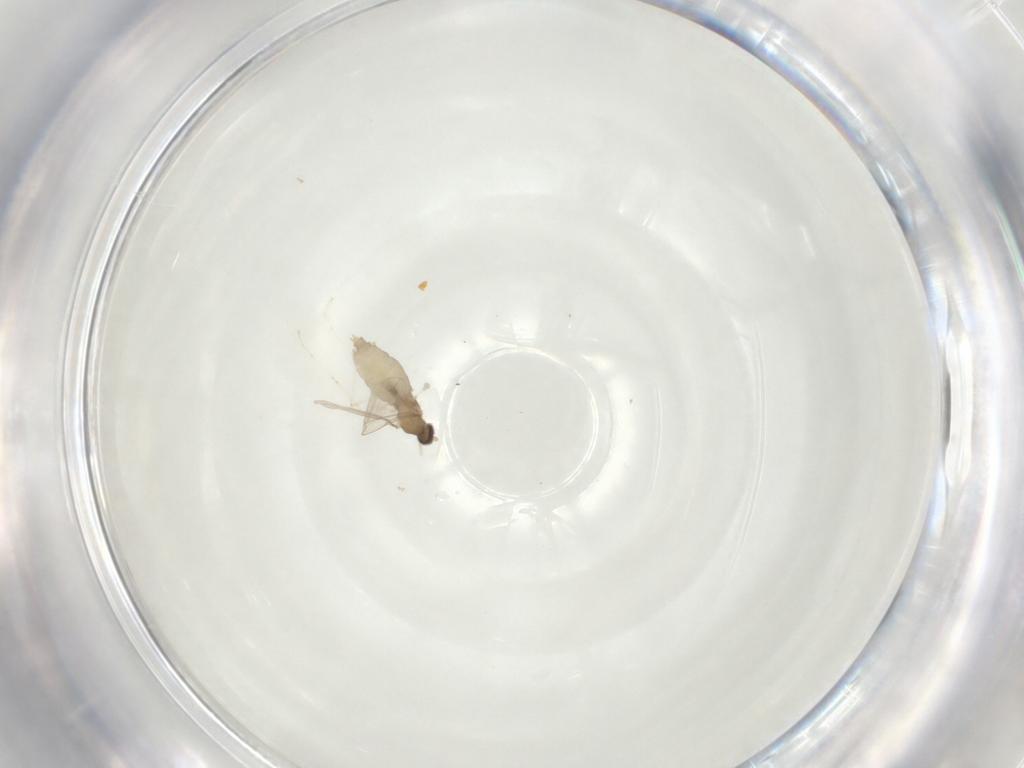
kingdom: Animalia
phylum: Arthropoda
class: Insecta
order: Diptera
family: Cecidomyiidae
